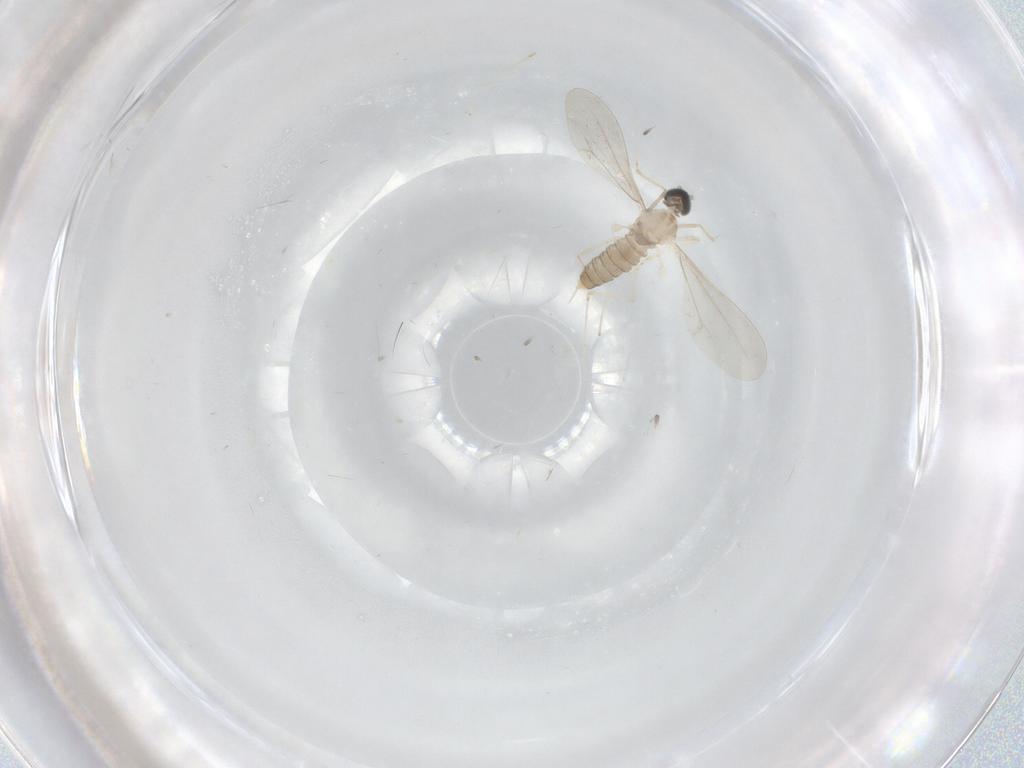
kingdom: Animalia
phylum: Arthropoda
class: Insecta
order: Diptera
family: Cecidomyiidae
